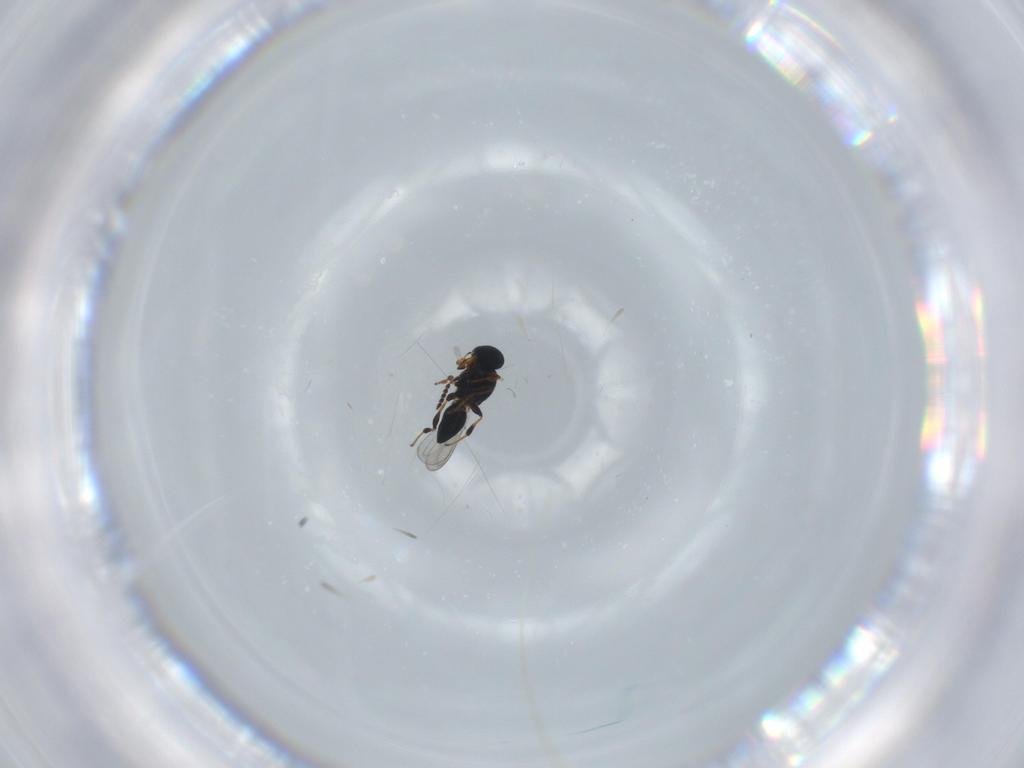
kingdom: Animalia
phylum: Arthropoda
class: Insecta
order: Hymenoptera
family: Platygastridae
